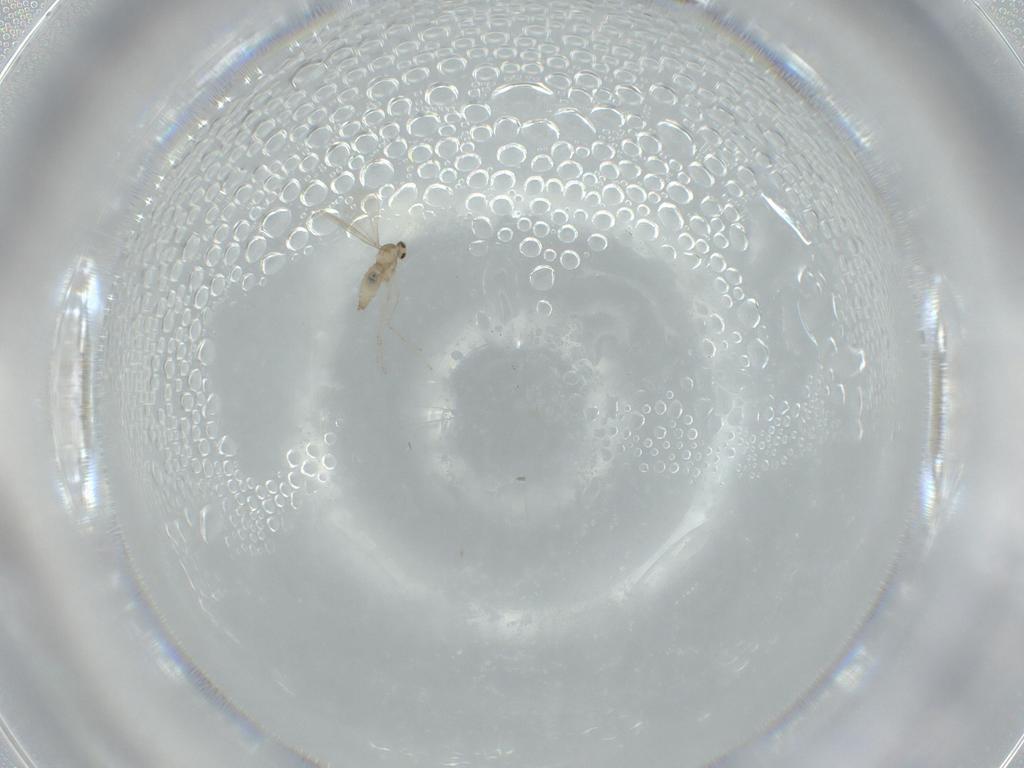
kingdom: Animalia
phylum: Arthropoda
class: Insecta
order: Diptera
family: Cecidomyiidae
